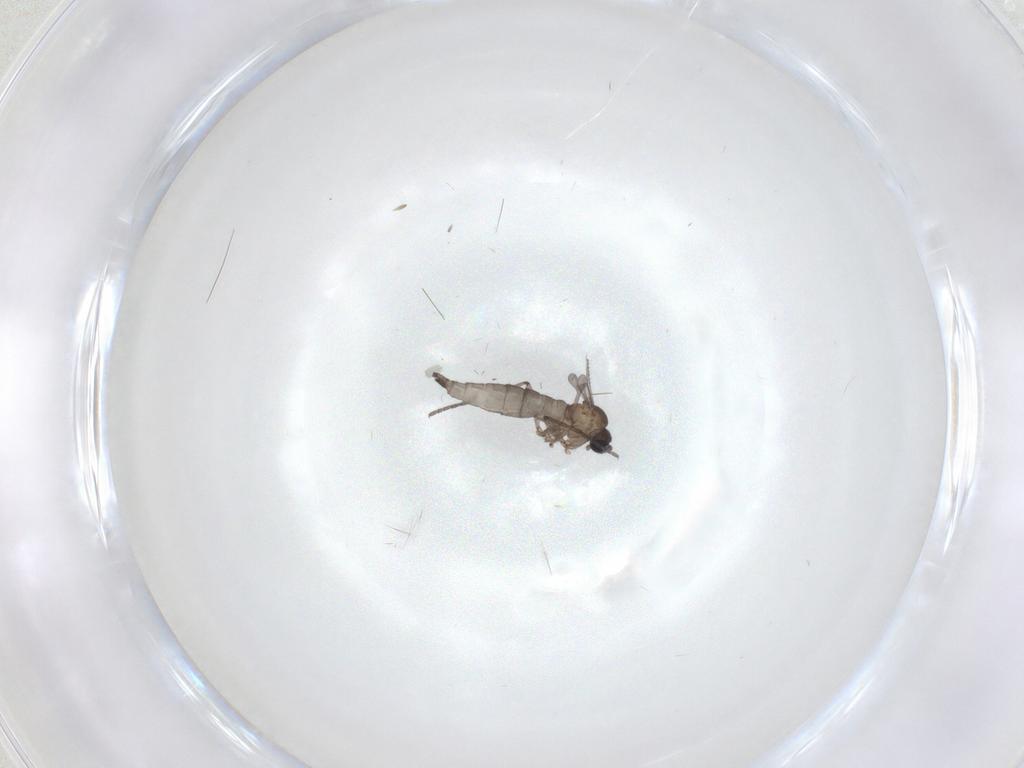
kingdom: Animalia
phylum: Arthropoda
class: Insecta
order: Diptera
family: Sciaridae
